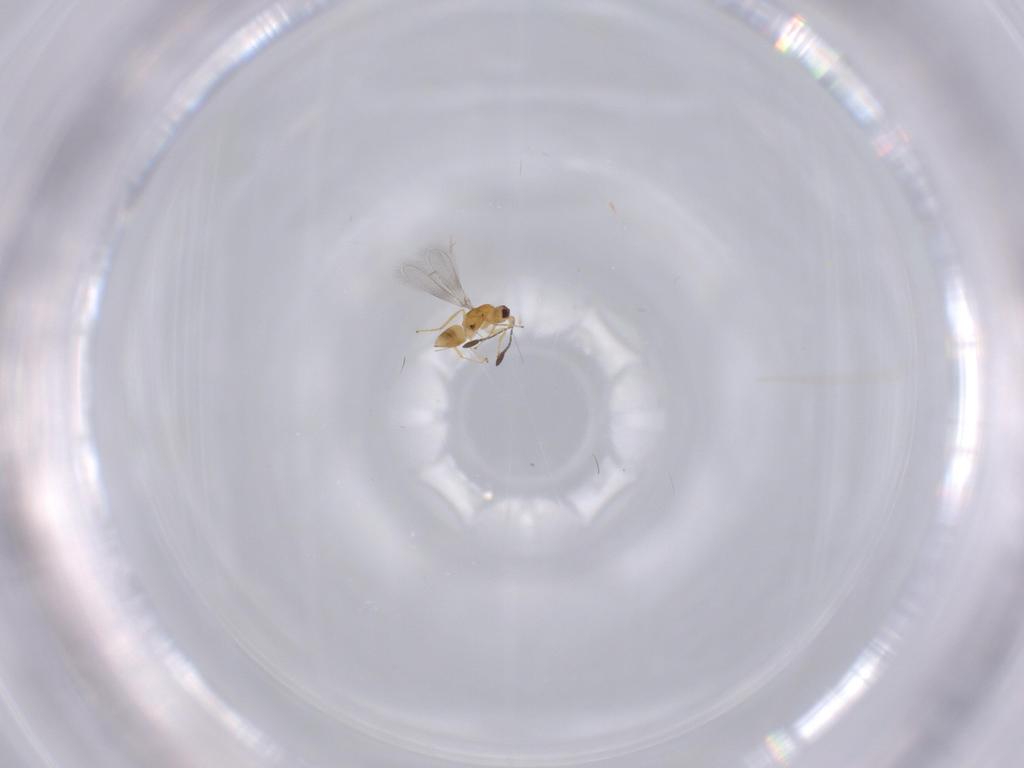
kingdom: Animalia
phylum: Arthropoda
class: Insecta
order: Hymenoptera
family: Mymaridae
